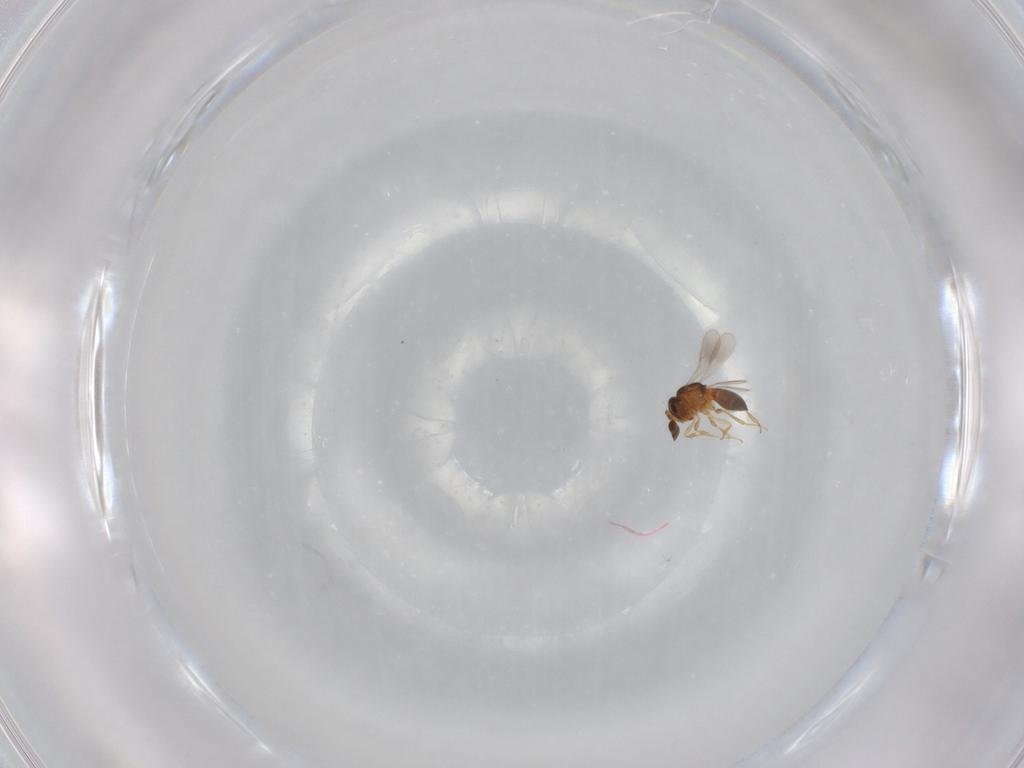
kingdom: Animalia
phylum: Arthropoda
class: Insecta
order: Hymenoptera
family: Scelionidae
